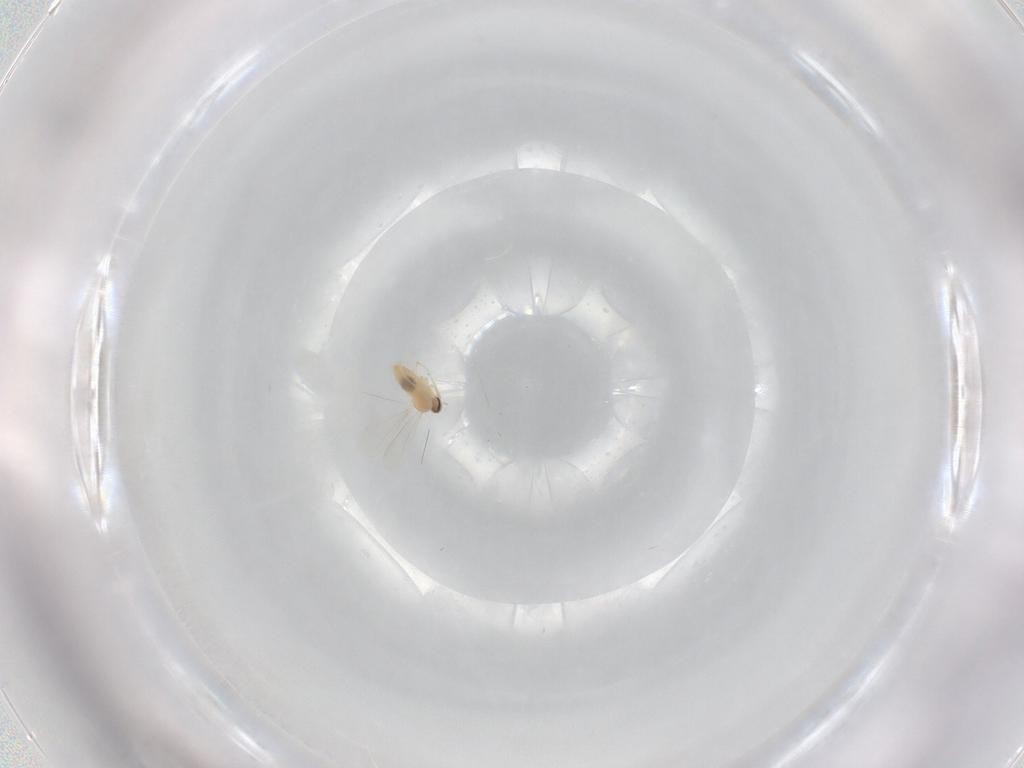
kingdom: Animalia
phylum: Arthropoda
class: Insecta
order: Diptera
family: Cecidomyiidae
